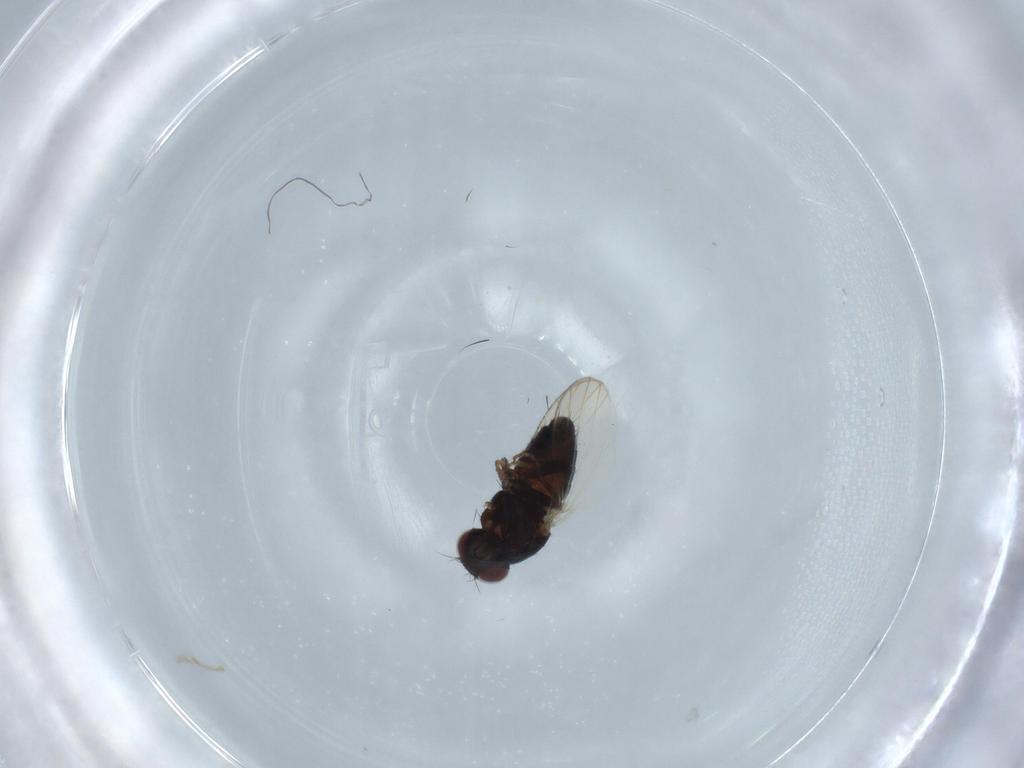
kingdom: Animalia
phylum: Arthropoda
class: Insecta
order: Diptera
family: Carnidae
